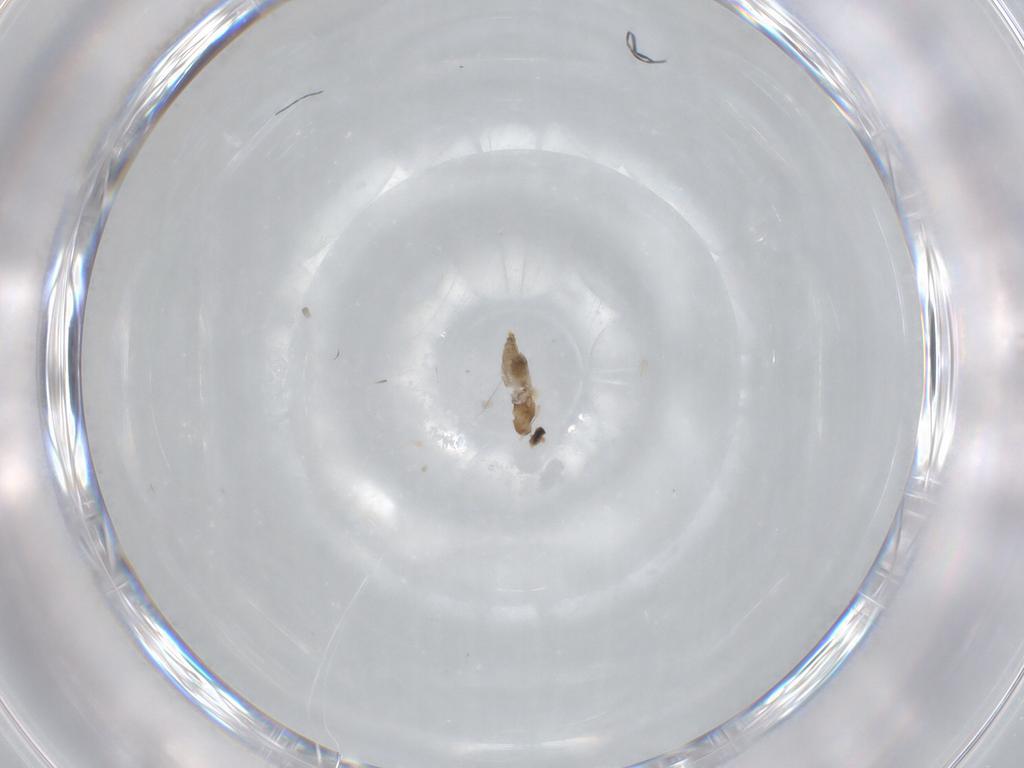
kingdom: Animalia
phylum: Arthropoda
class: Insecta
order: Diptera
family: Cecidomyiidae
